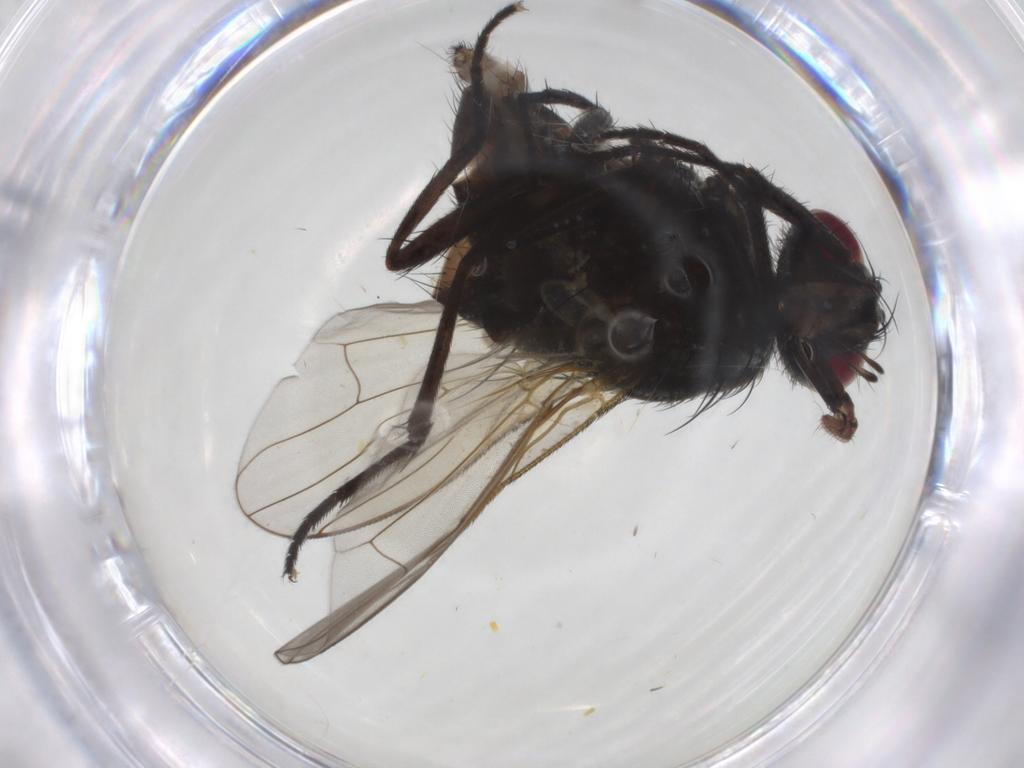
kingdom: Animalia
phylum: Arthropoda
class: Insecta
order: Diptera
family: Muscidae
